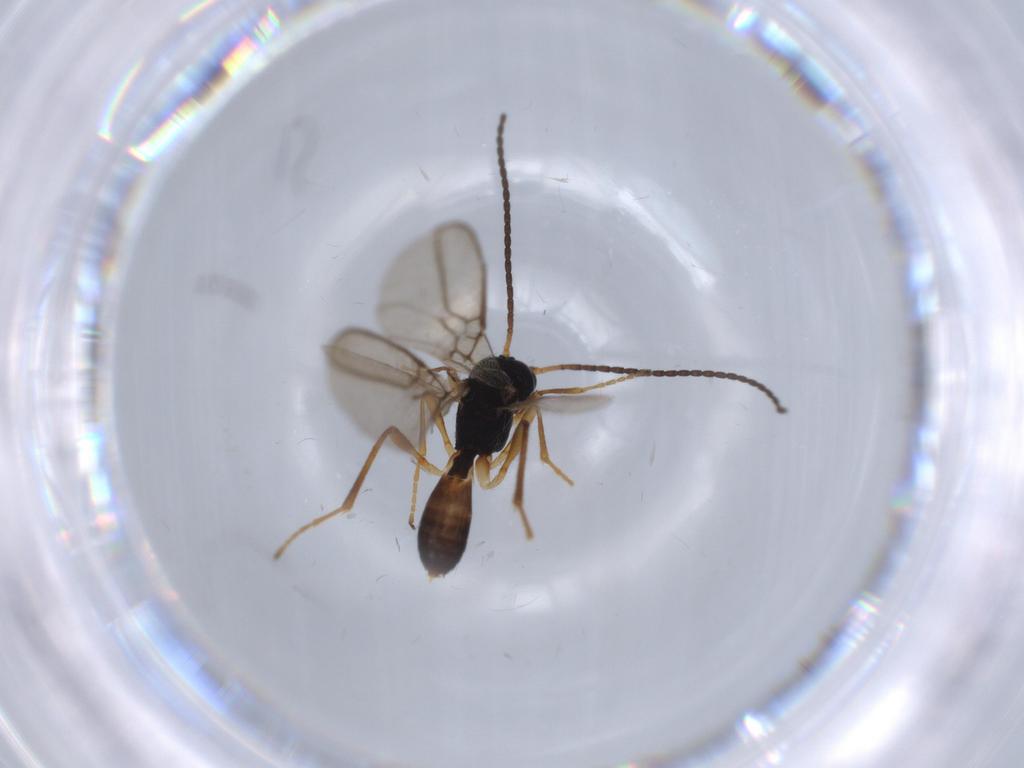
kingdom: Animalia
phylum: Arthropoda
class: Insecta
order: Hymenoptera
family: Braconidae
